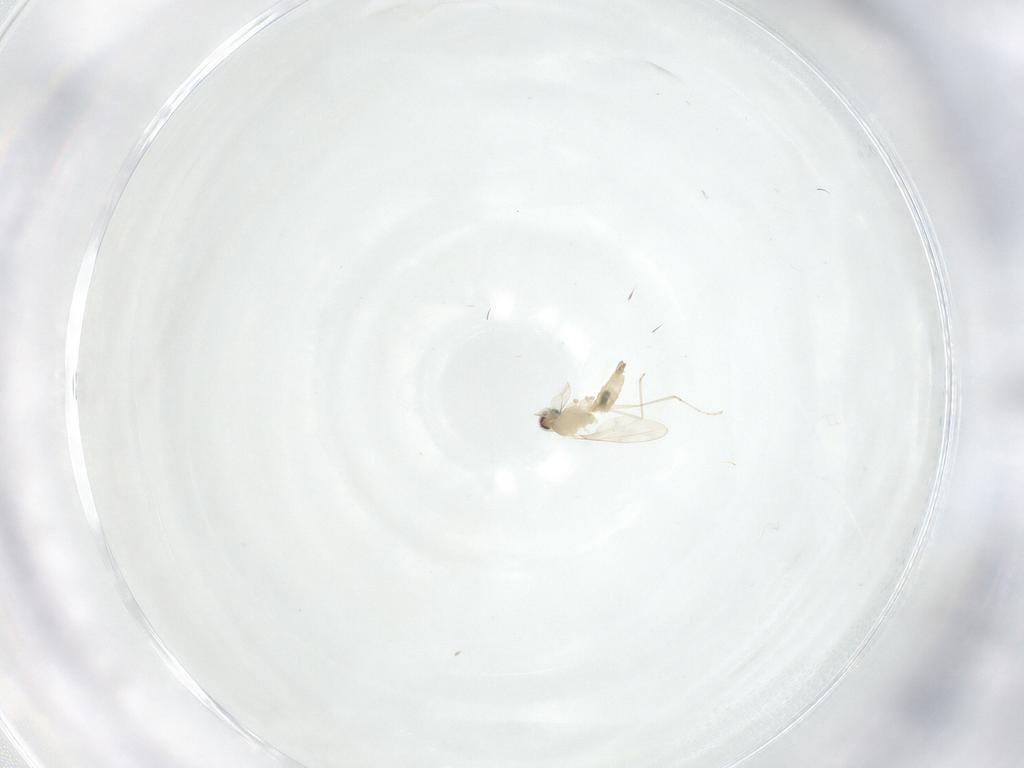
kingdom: Animalia
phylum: Arthropoda
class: Insecta
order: Diptera
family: Cecidomyiidae
